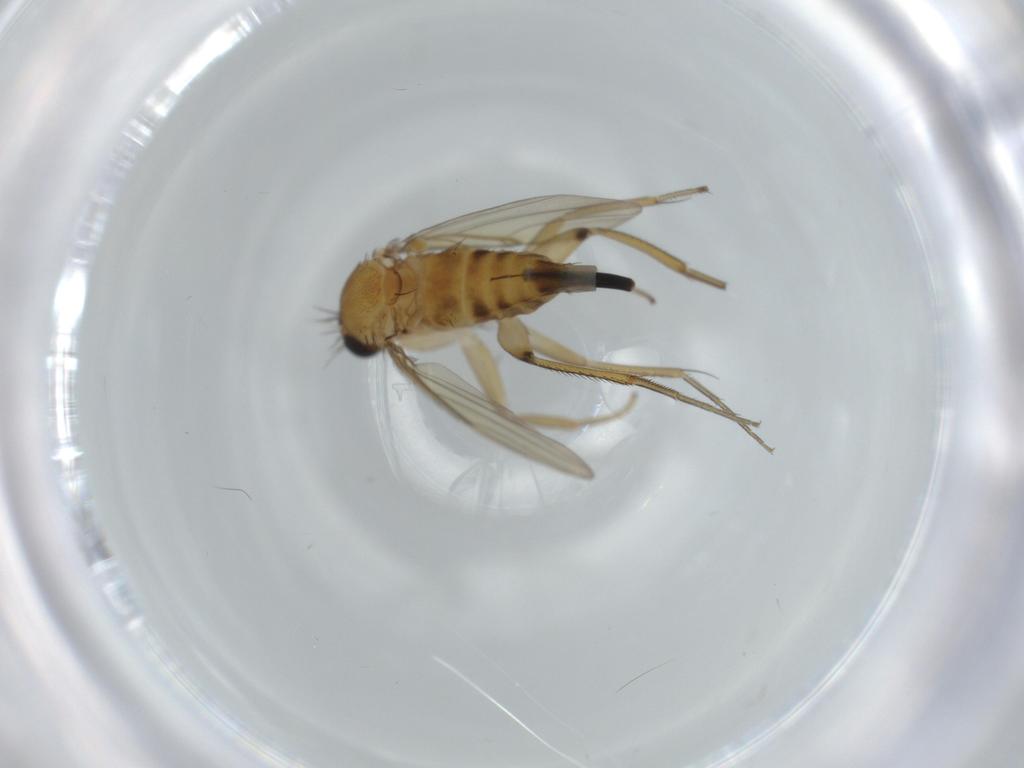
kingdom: Animalia
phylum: Arthropoda
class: Insecta
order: Diptera
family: Phoridae
